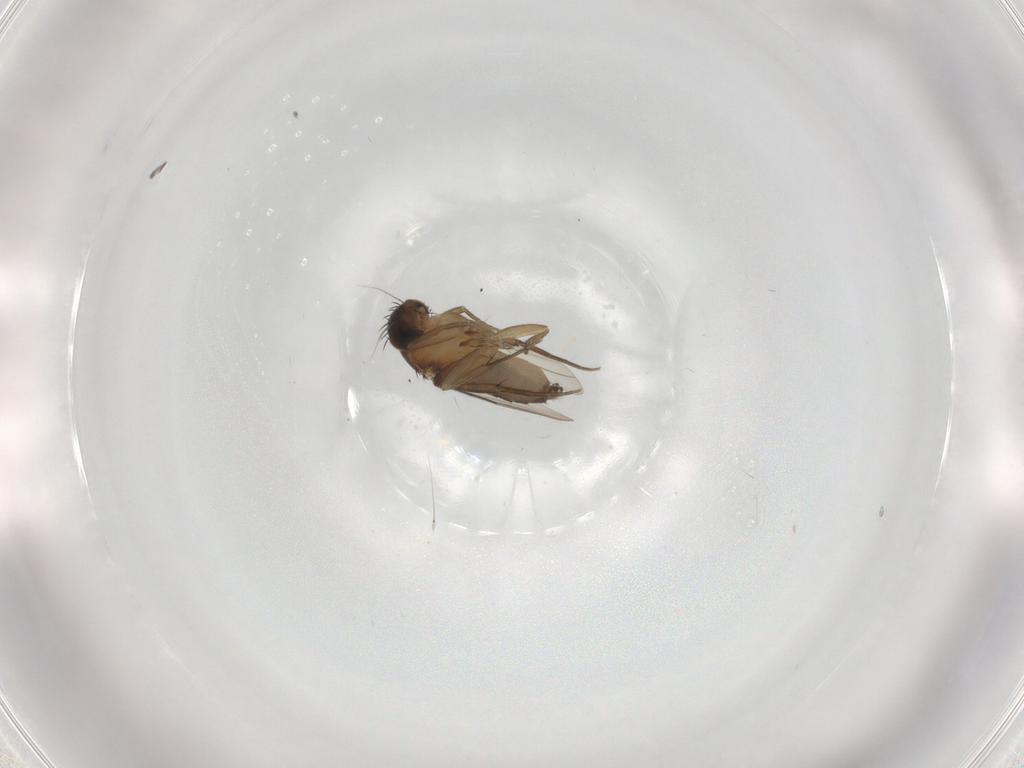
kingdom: Animalia
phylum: Arthropoda
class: Insecta
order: Diptera
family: Phoridae
